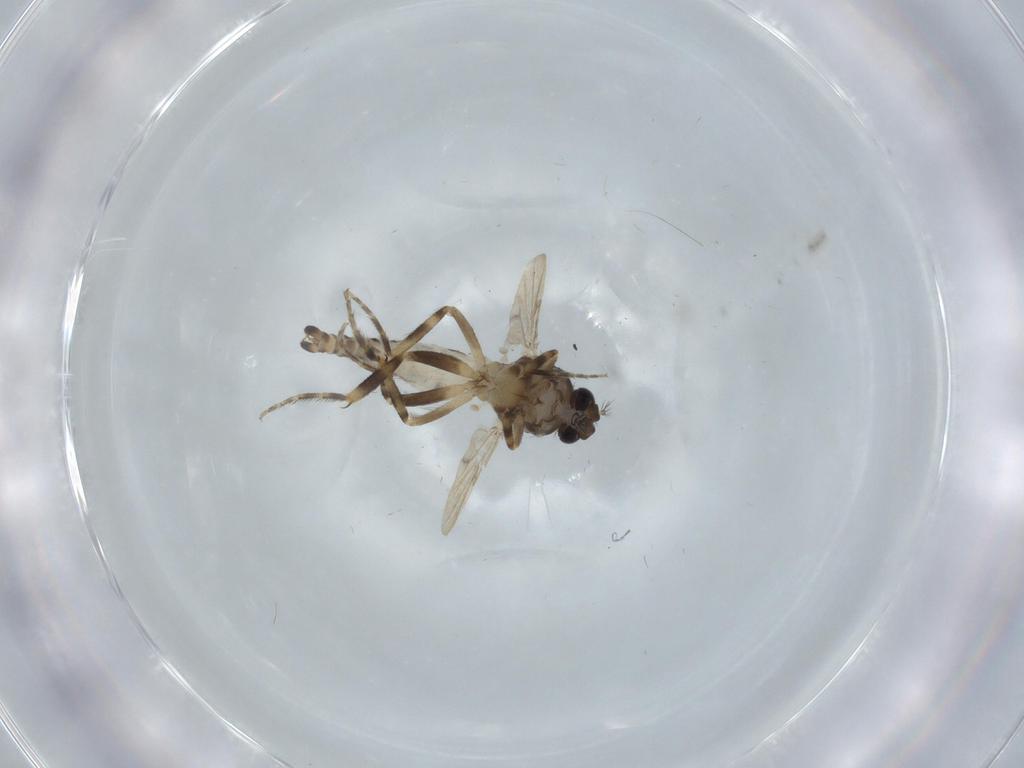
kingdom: Animalia
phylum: Arthropoda
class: Insecta
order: Diptera
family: Ceratopogonidae
